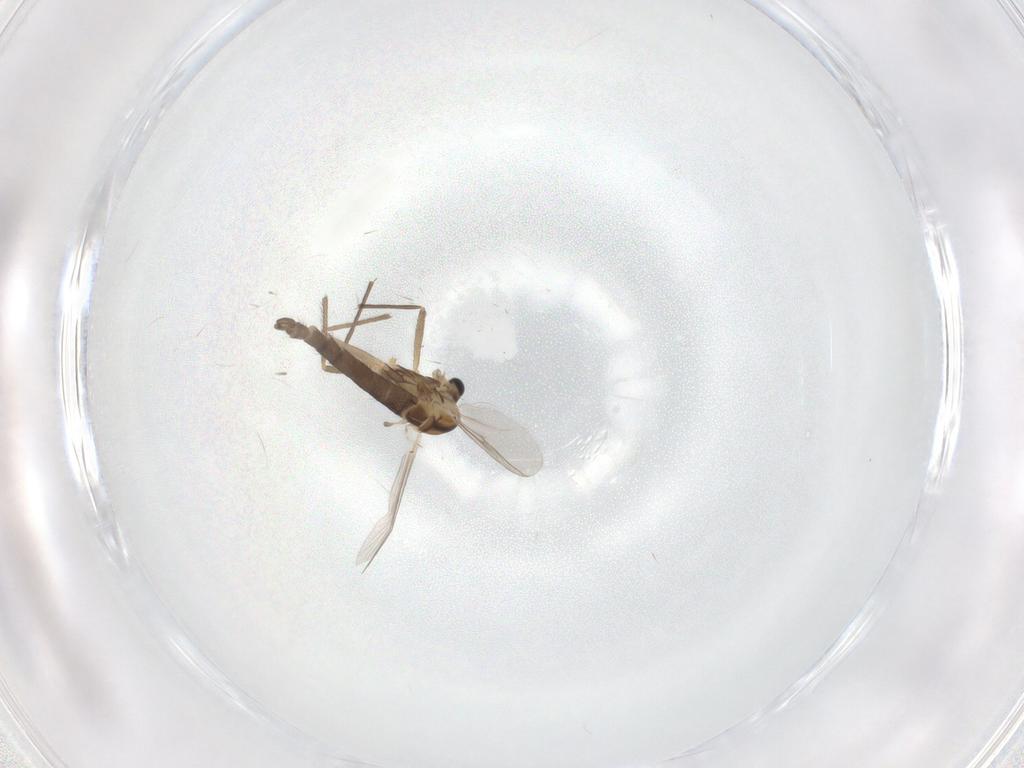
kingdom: Animalia
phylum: Arthropoda
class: Insecta
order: Diptera
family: Chironomidae
